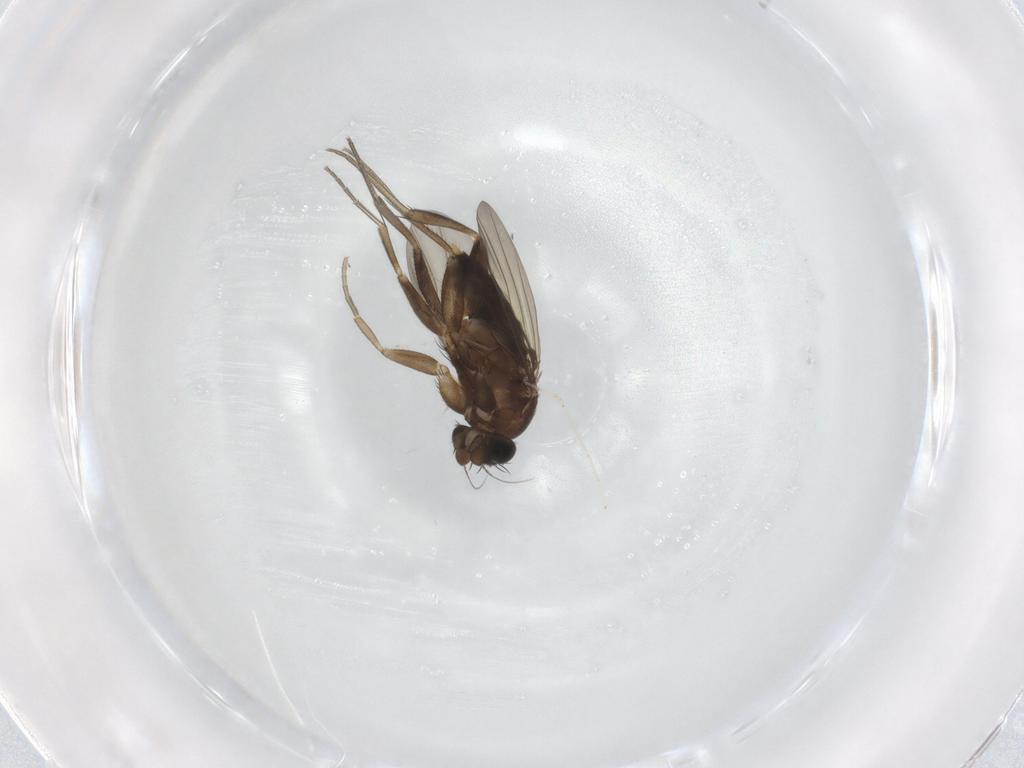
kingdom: Animalia
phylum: Arthropoda
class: Insecta
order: Diptera
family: Phoridae
